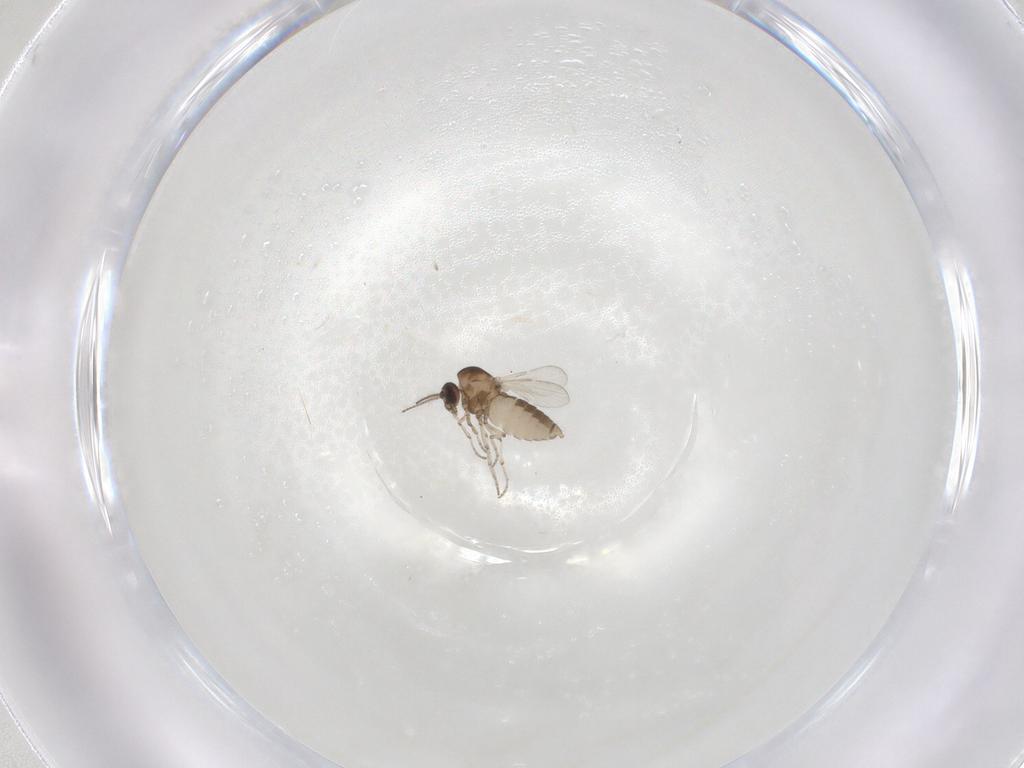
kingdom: Animalia
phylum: Arthropoda
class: Insecta
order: Diptera
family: Ceratopogonidae
